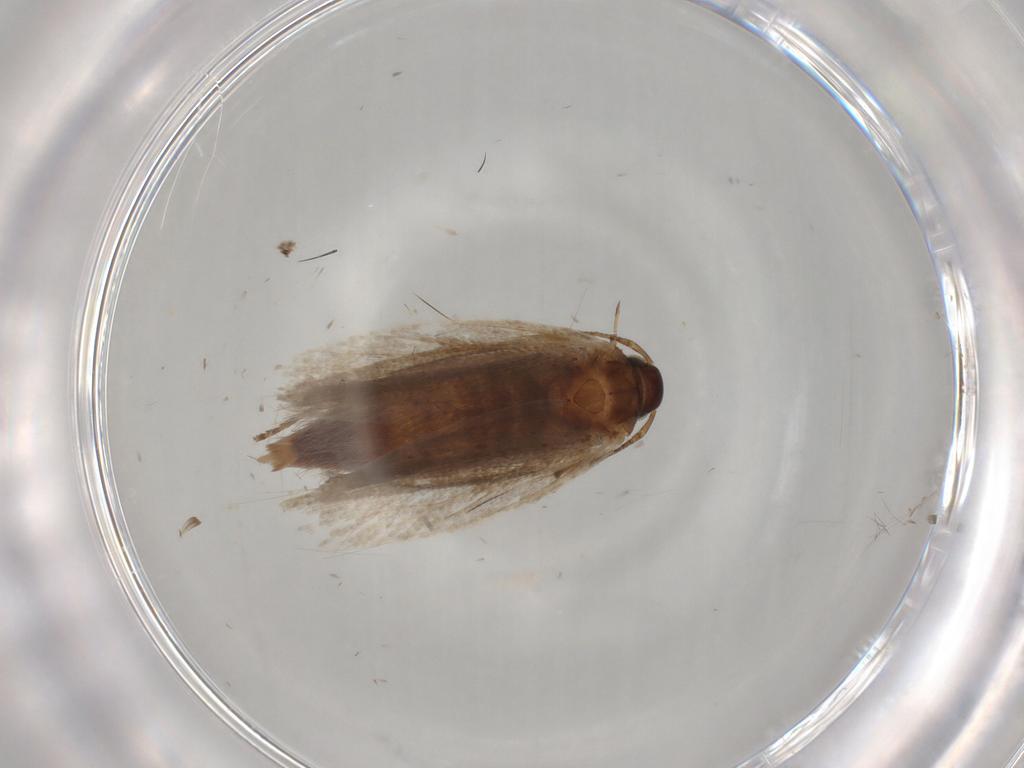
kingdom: Animalia
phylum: Arthropoda
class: Insecta
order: Lepidoptera
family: Gelechiidae
